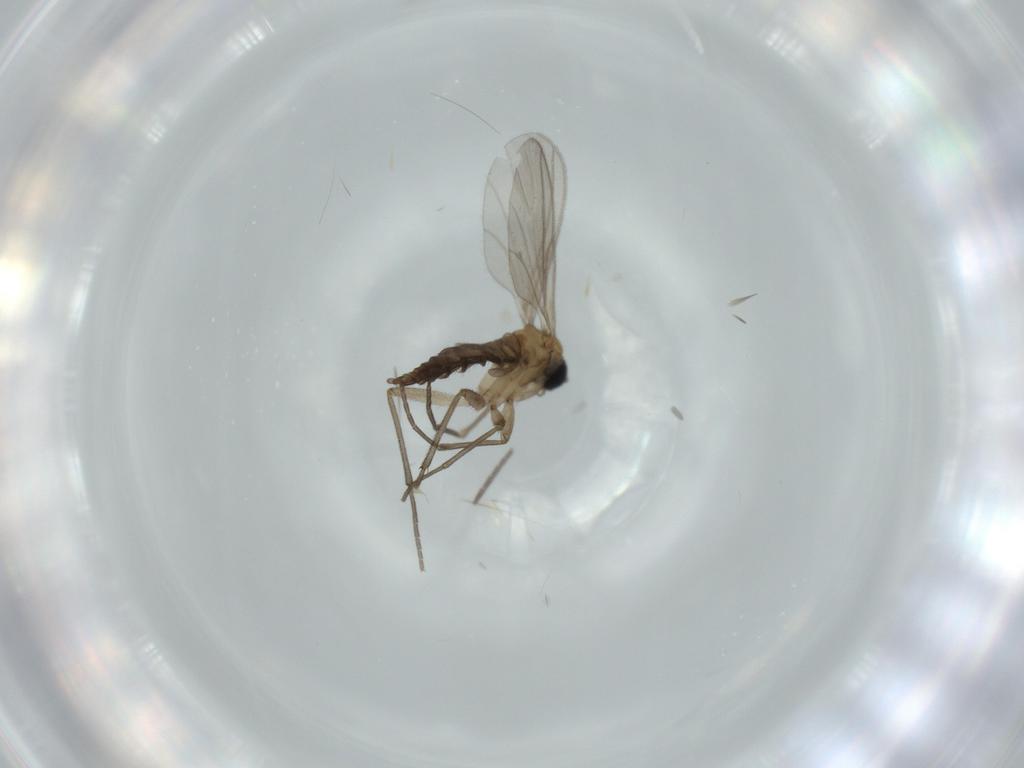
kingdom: Animalia
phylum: Arthropoda
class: Insecta
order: Diptera
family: Sciaridae
